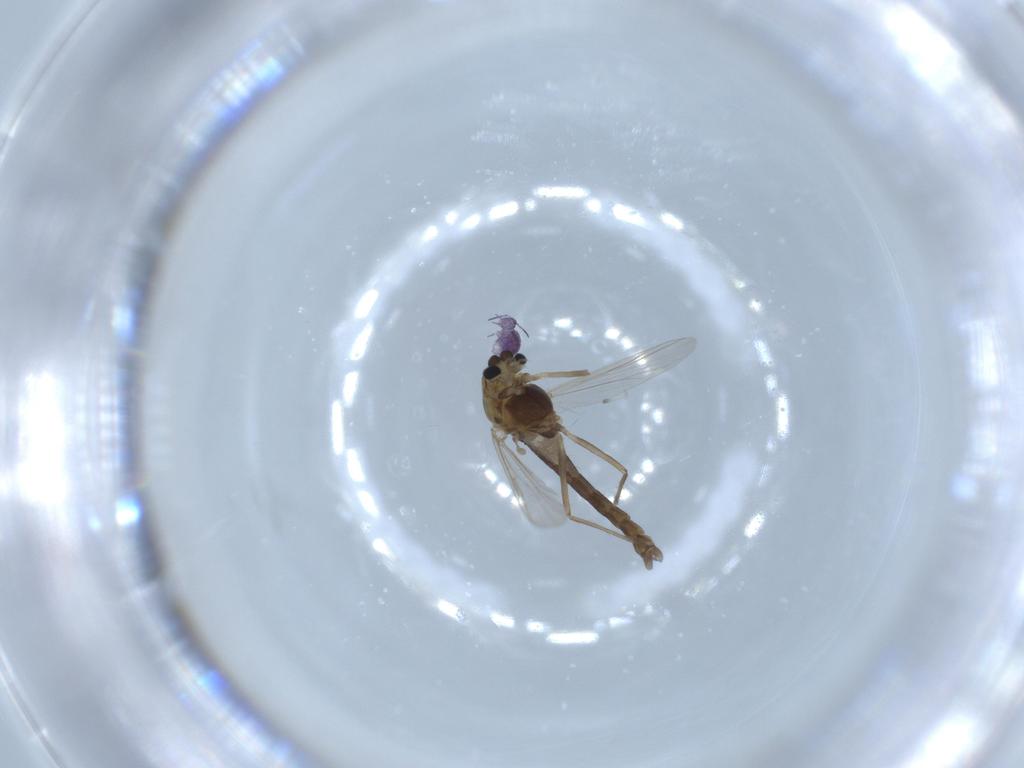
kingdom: Animalia
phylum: Arthropoda
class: Insecta
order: Diptera
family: Chironomidae
